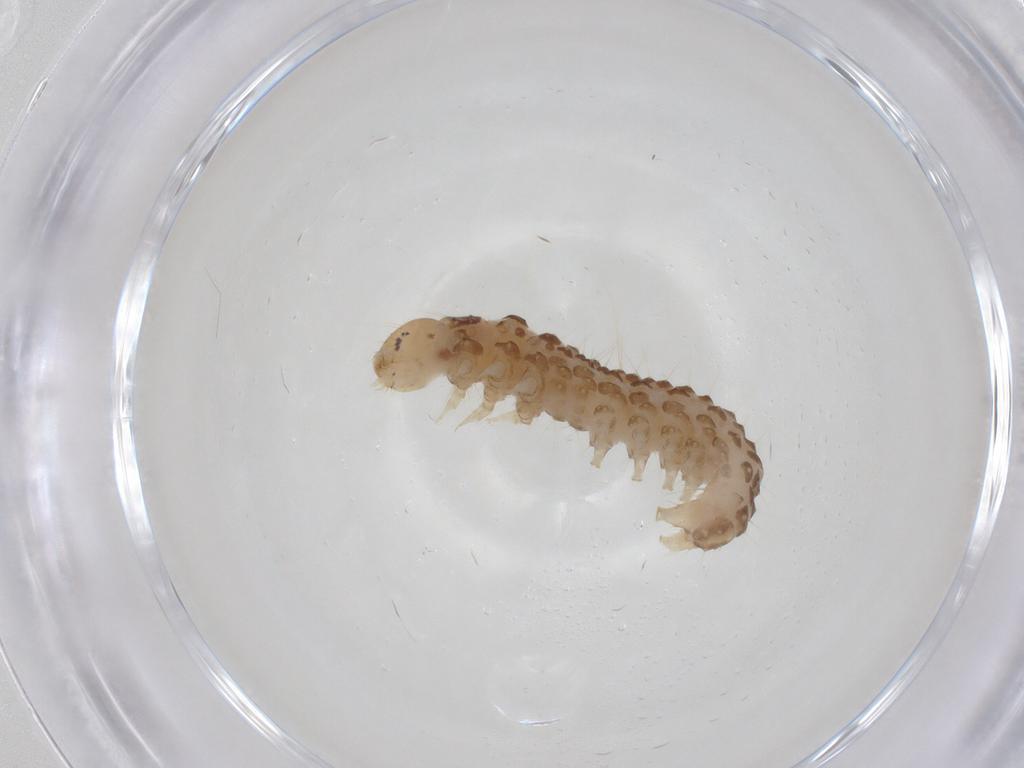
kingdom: Animalia
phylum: Arthropoda
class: Insecta
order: Lepidoptera
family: Crambidae
